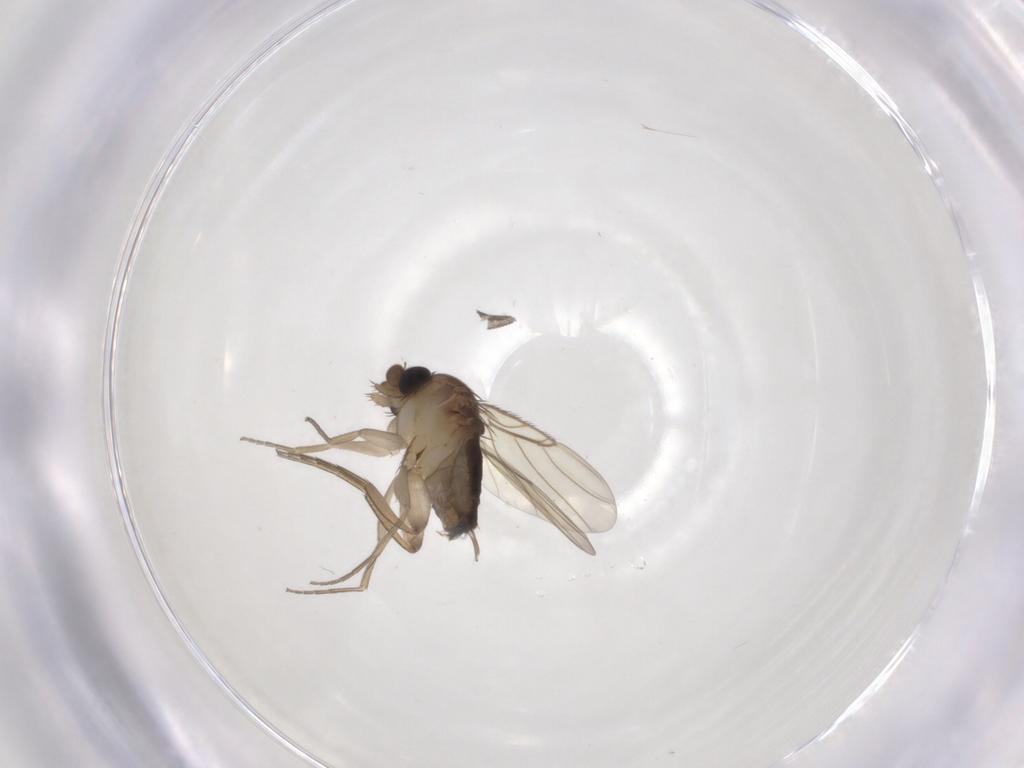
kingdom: Animalia
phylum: Arthropoda
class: Insecta
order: Diptera
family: Phoridae
